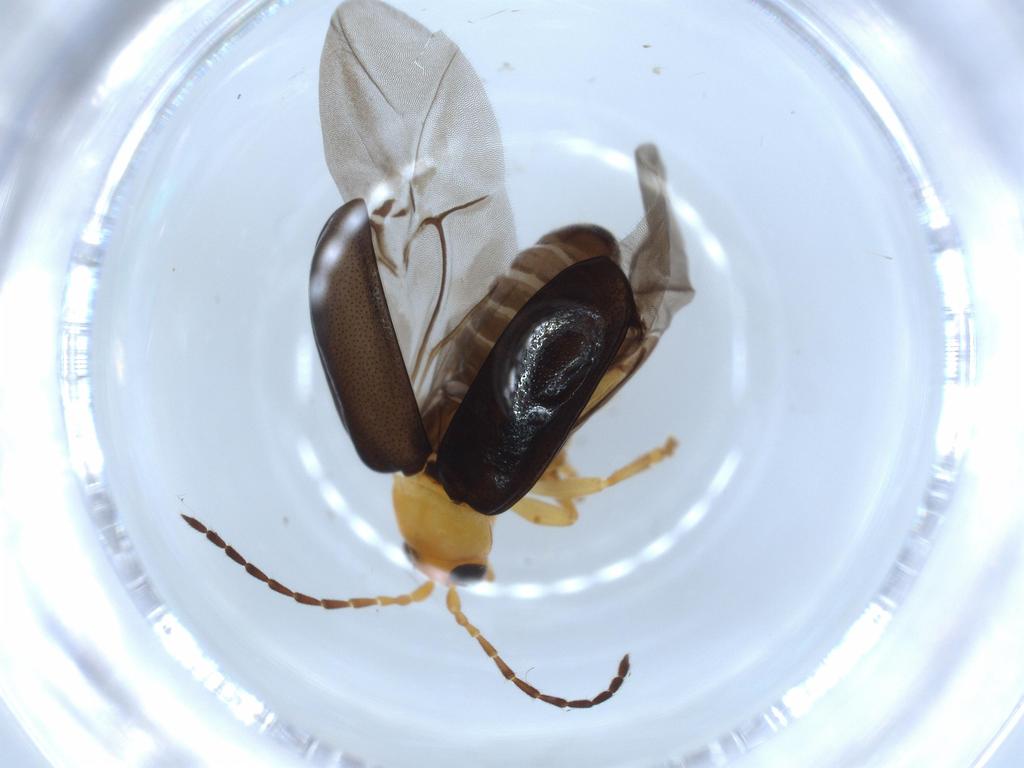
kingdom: Animalia
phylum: Arthropoda
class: Insecta
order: Coleoptera
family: Chrysomelidae
